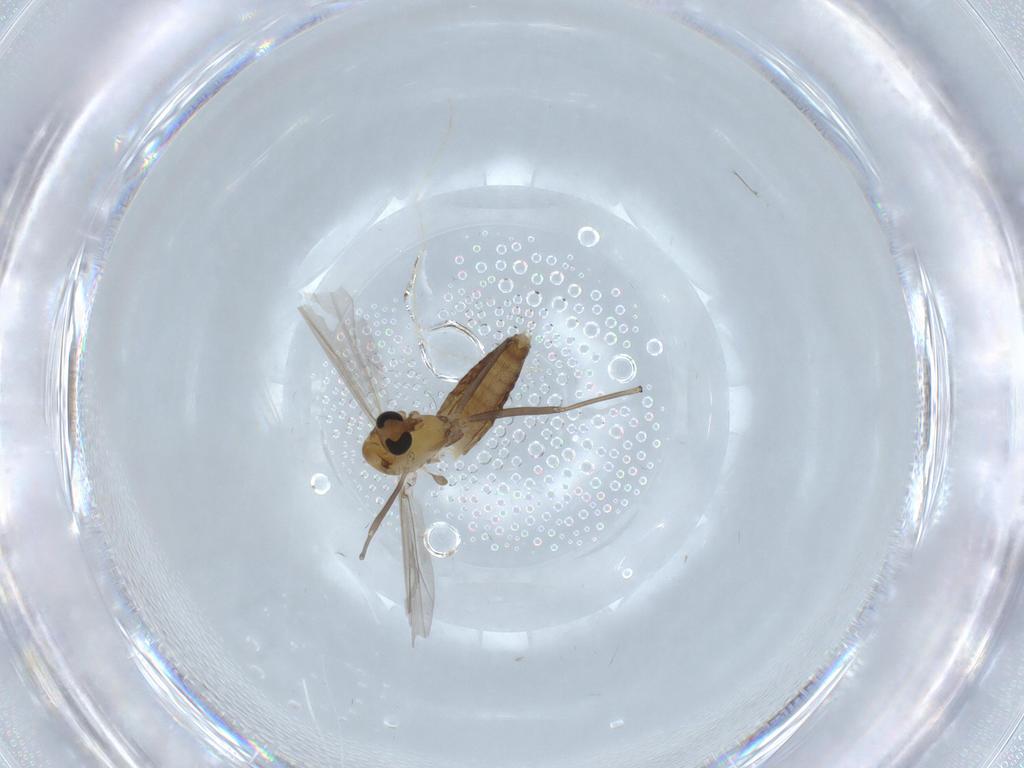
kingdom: Animalia
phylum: Arthropoda
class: Insecta
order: Diptera
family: Chironomidae
